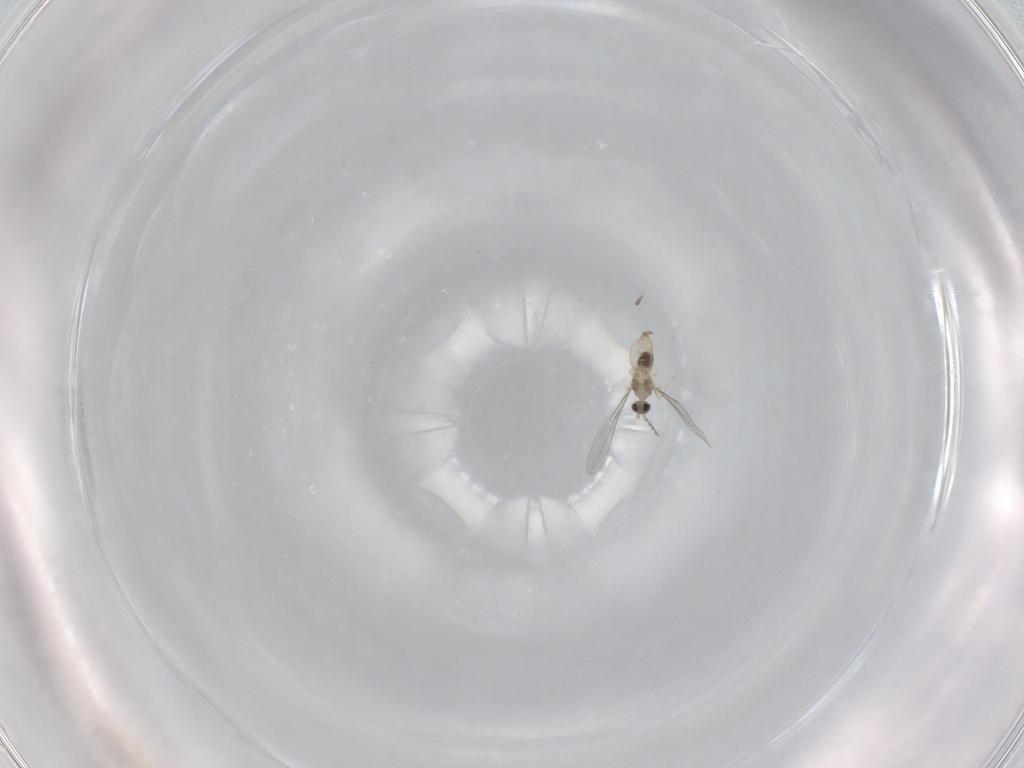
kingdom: Animalia
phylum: Arthropoda
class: Insecta
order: Diptera
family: Cecidomyiidae
